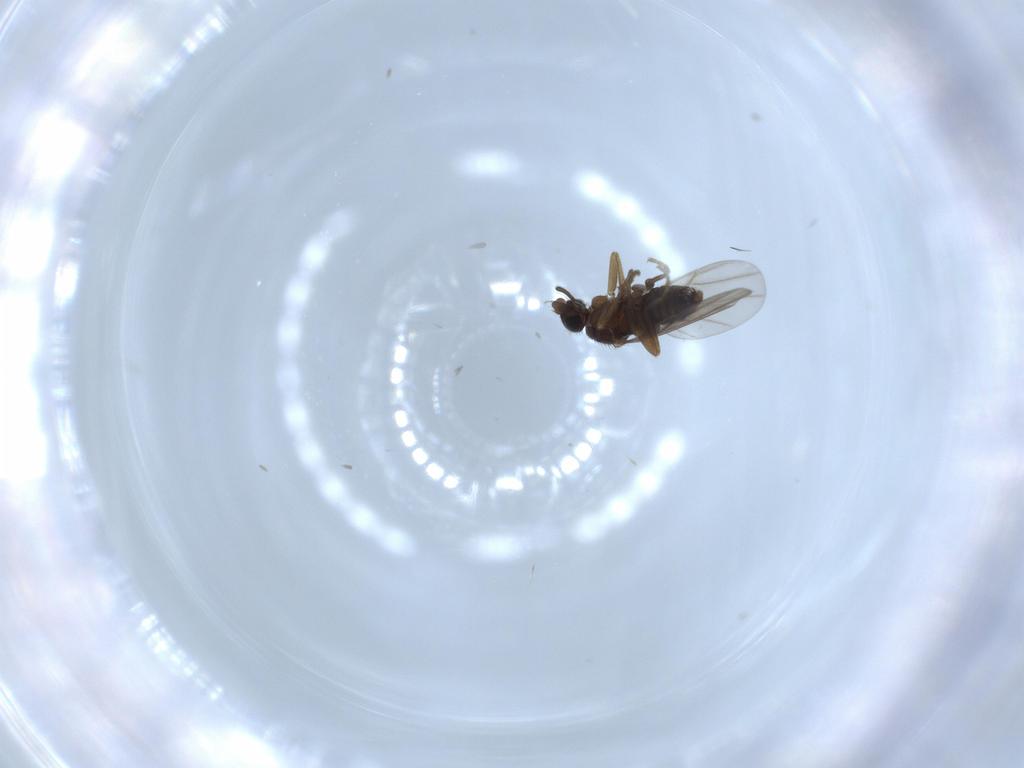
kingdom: Animalia
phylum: Arthropoda
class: Insecta
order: Diptera
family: Phoridae
